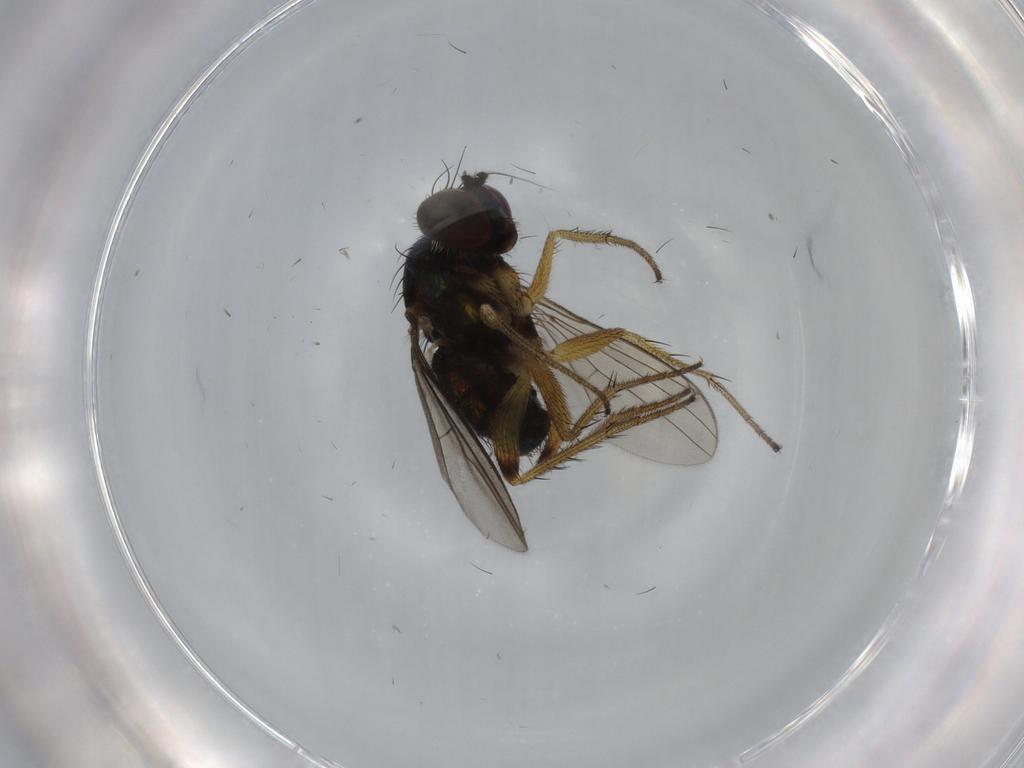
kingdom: Animalia
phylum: Arthropoda
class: Insecta
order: Diptera
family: Dolichopodidae
